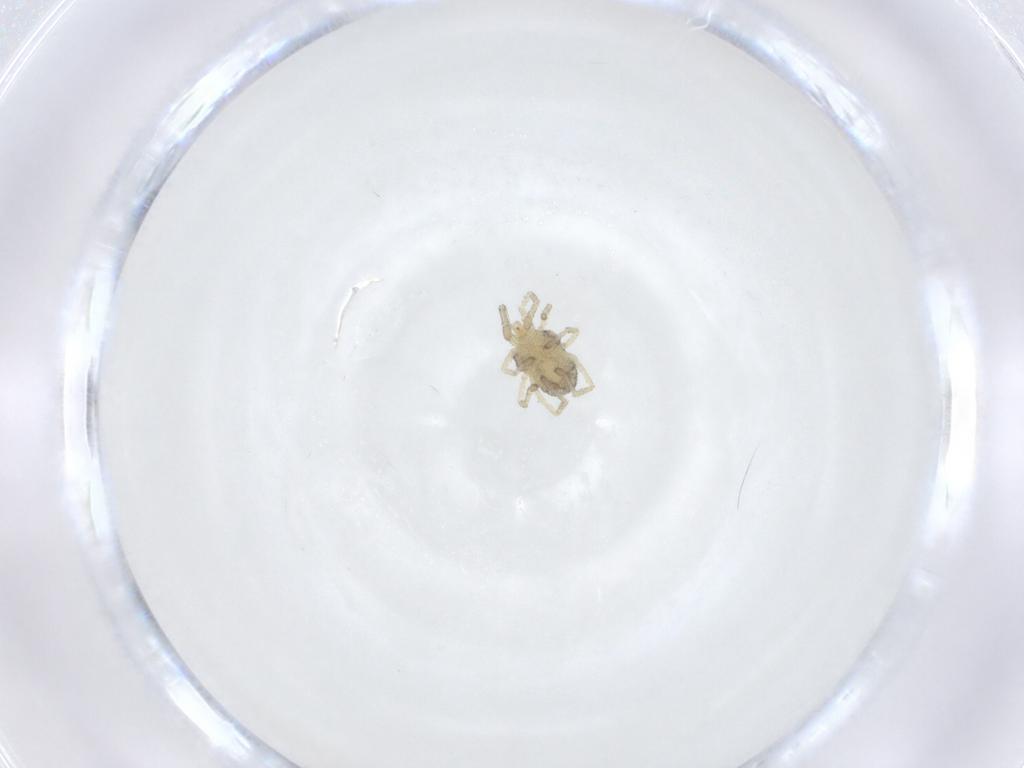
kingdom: Animalia
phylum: Arthropoda
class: Arachnida
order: Trombidiformes
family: Smarididae
